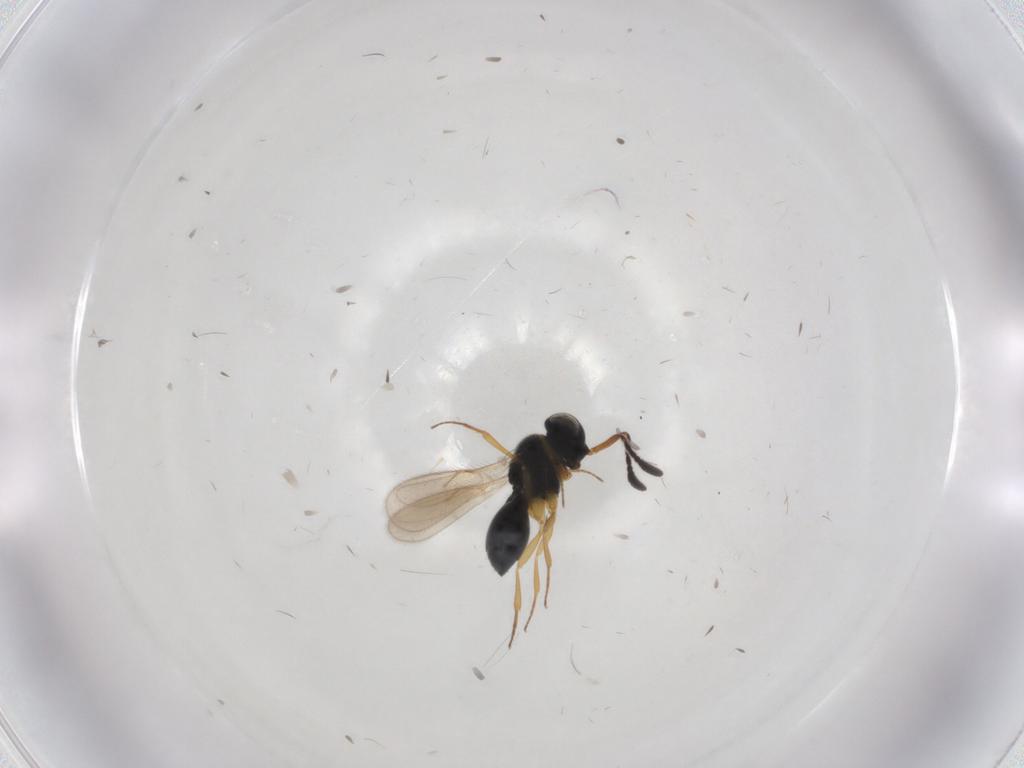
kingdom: Animalia
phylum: Arthropoda
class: Insecta
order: Hymenoptera
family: Scelionidae
